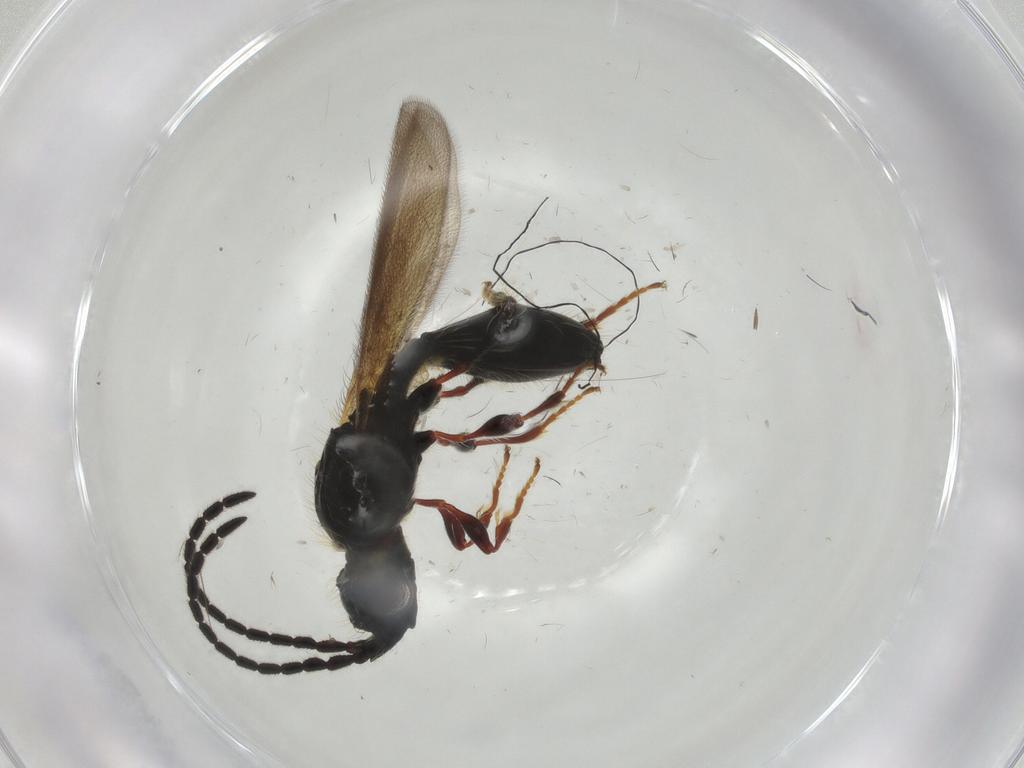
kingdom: Animalia
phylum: Arthropoda
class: Insecta
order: Hymenoptera
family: Diapriidae
